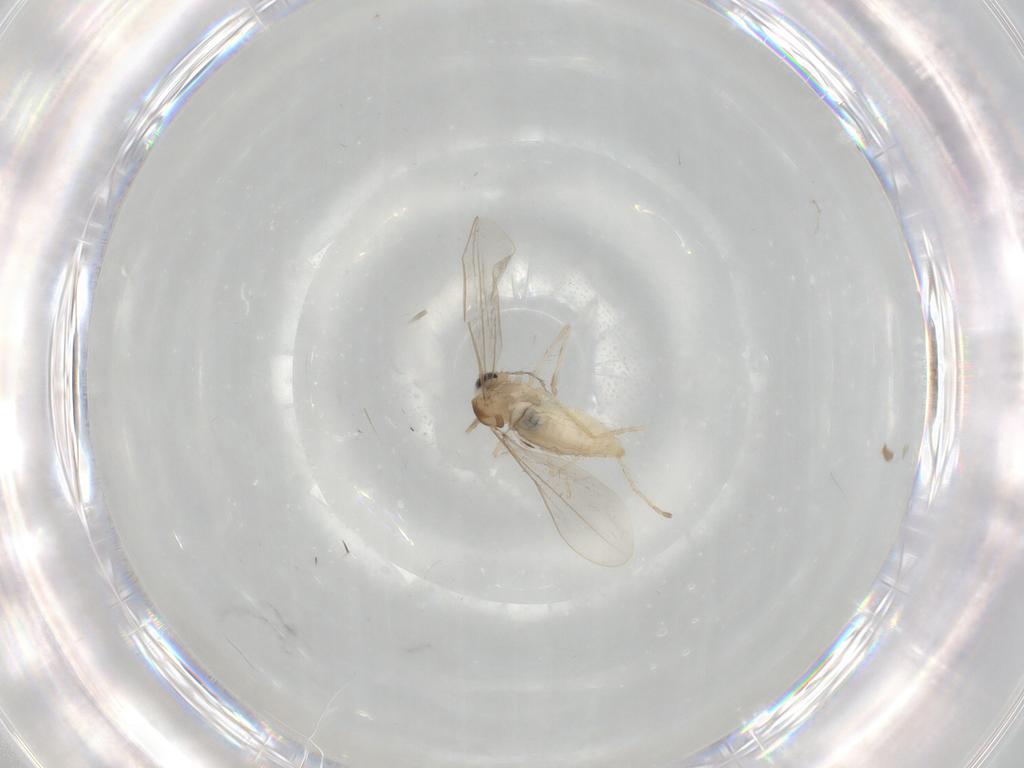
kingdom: Animalia
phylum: Arthropoda
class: Insecta
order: Diptera
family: Cecidomyiidae
